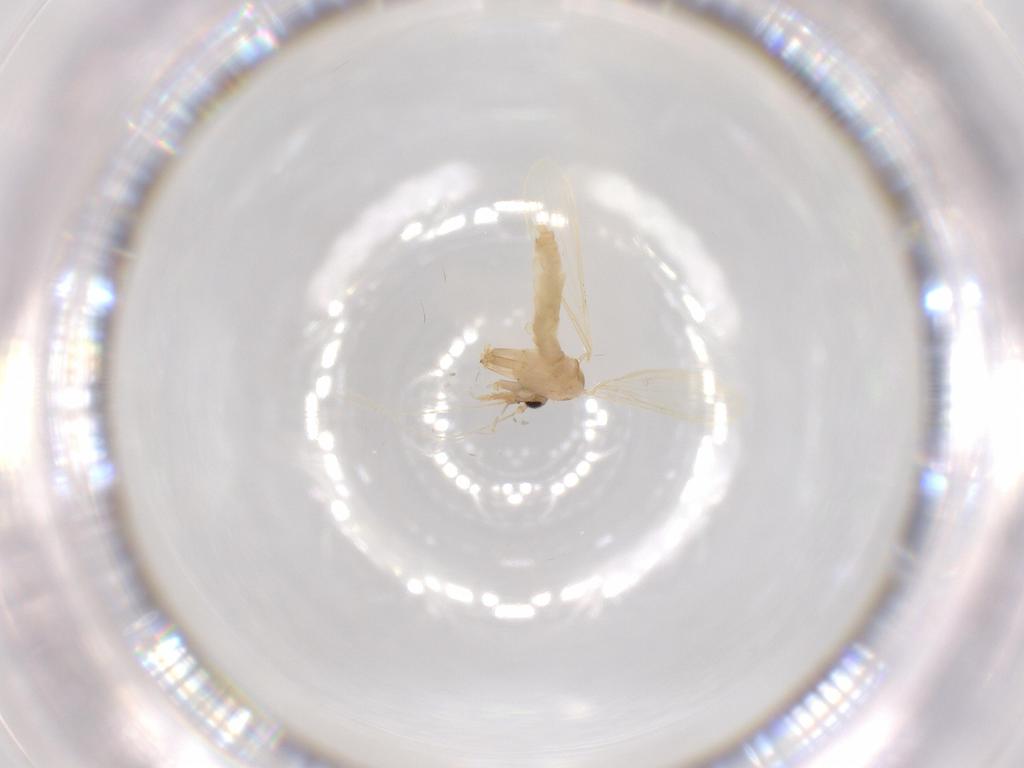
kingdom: Animalia
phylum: Arthropoda
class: Insecta
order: Diptera
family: Psychodidae
